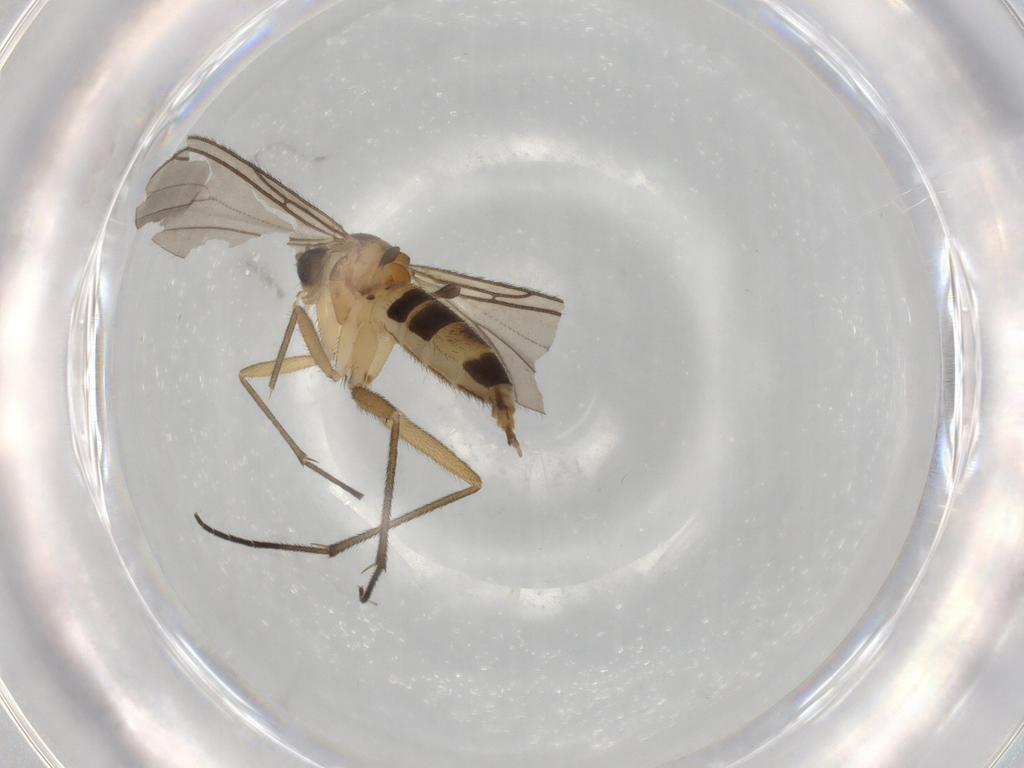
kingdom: Animalia
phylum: Arthropoda
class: Insecta
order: Diptera
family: Sciaridae
